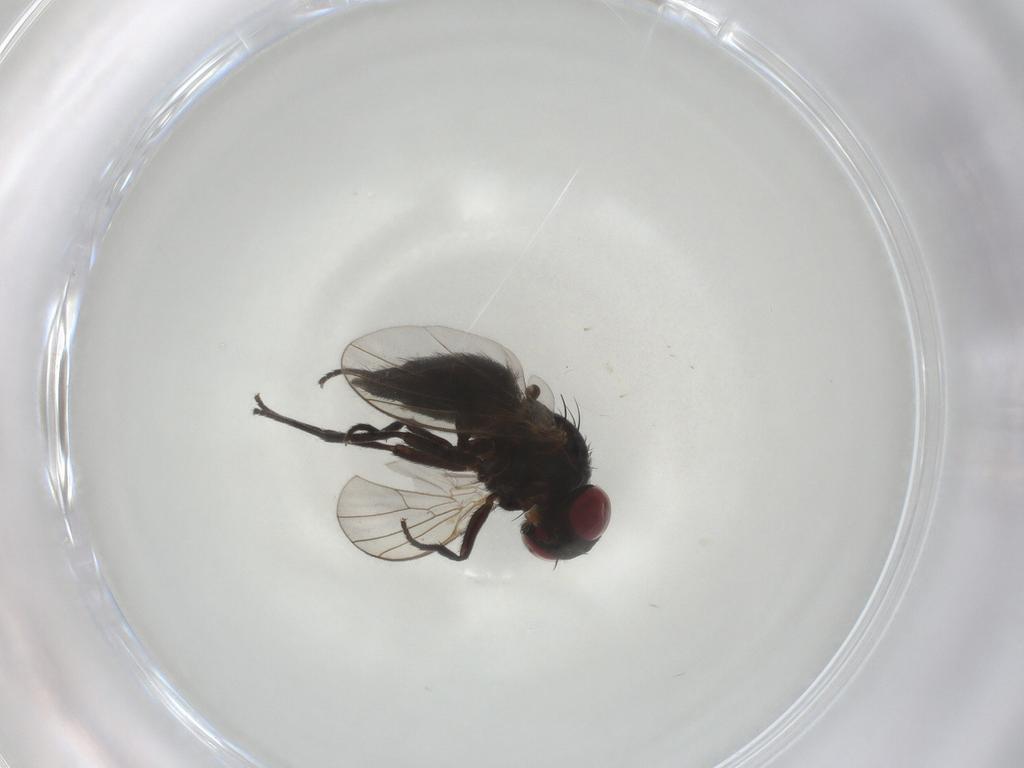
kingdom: Animalia
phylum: Arthropoda
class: Insecta
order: Diptera
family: Agromyzidae
